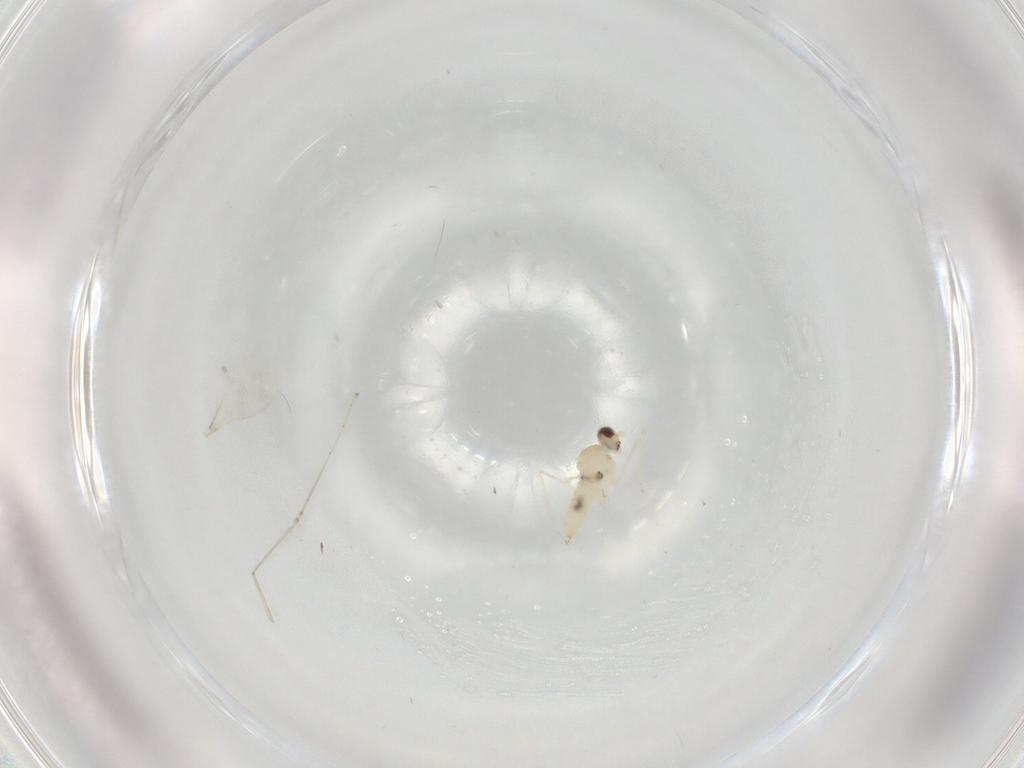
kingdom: Animalia
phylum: Arthropoda
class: Insecta
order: Diptera
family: Cecidomyiidae
